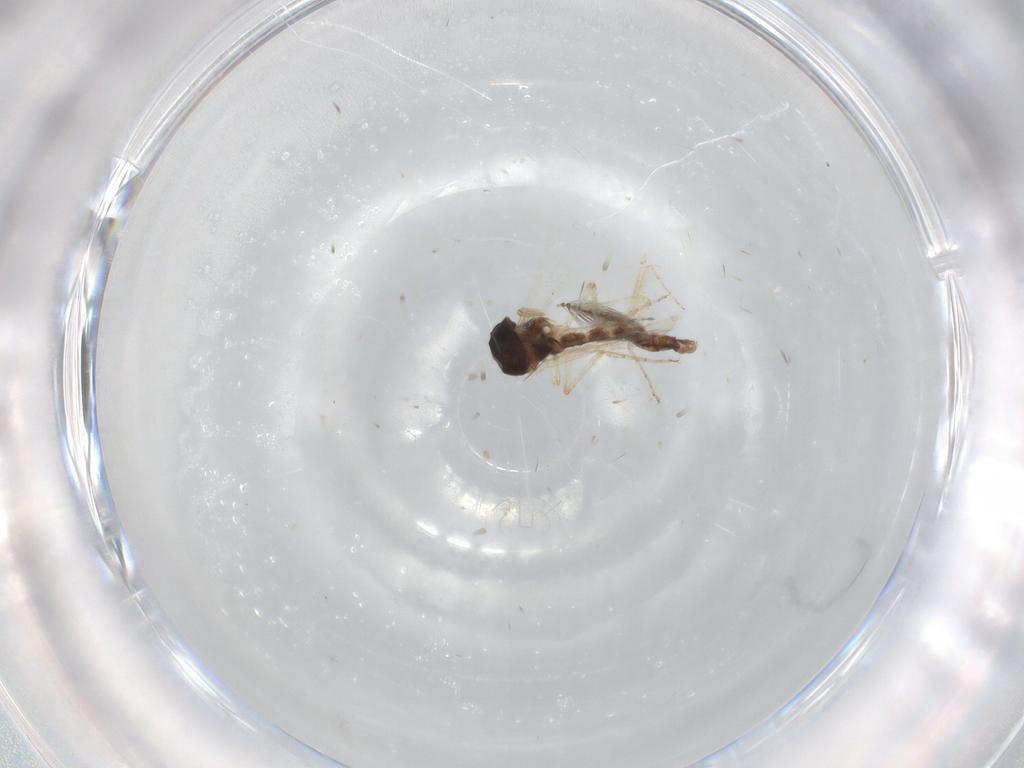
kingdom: Animalia
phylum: Arthropoda
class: Insecta
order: Diptera
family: Ceratopogonidae
